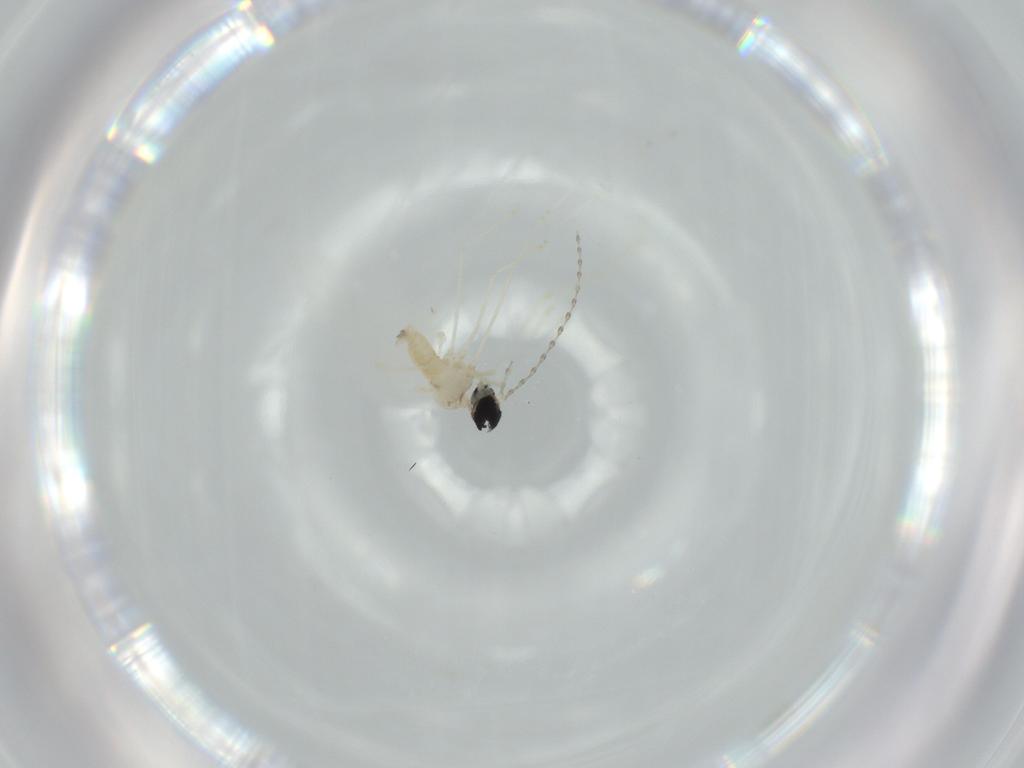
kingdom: Animalia
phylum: Arthropoda
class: Insecta
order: Diptera
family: Cecidomyiidae
